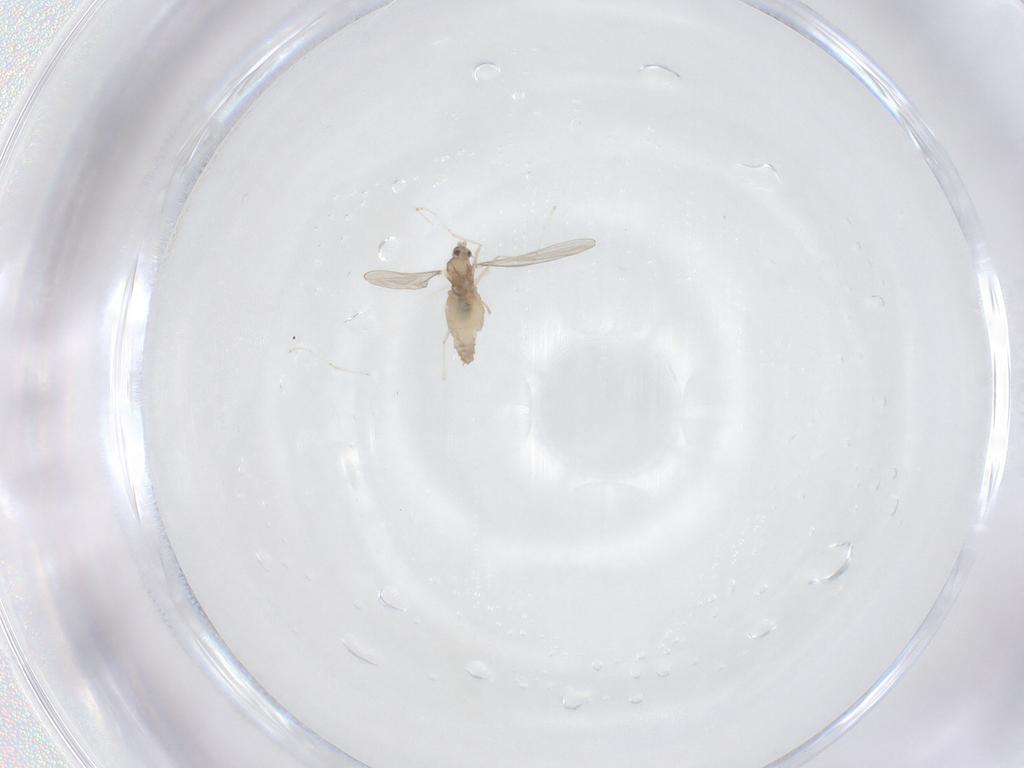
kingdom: Animalia
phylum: Arthropoda
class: Insecta
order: Diptera
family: Cecidomyiidae
